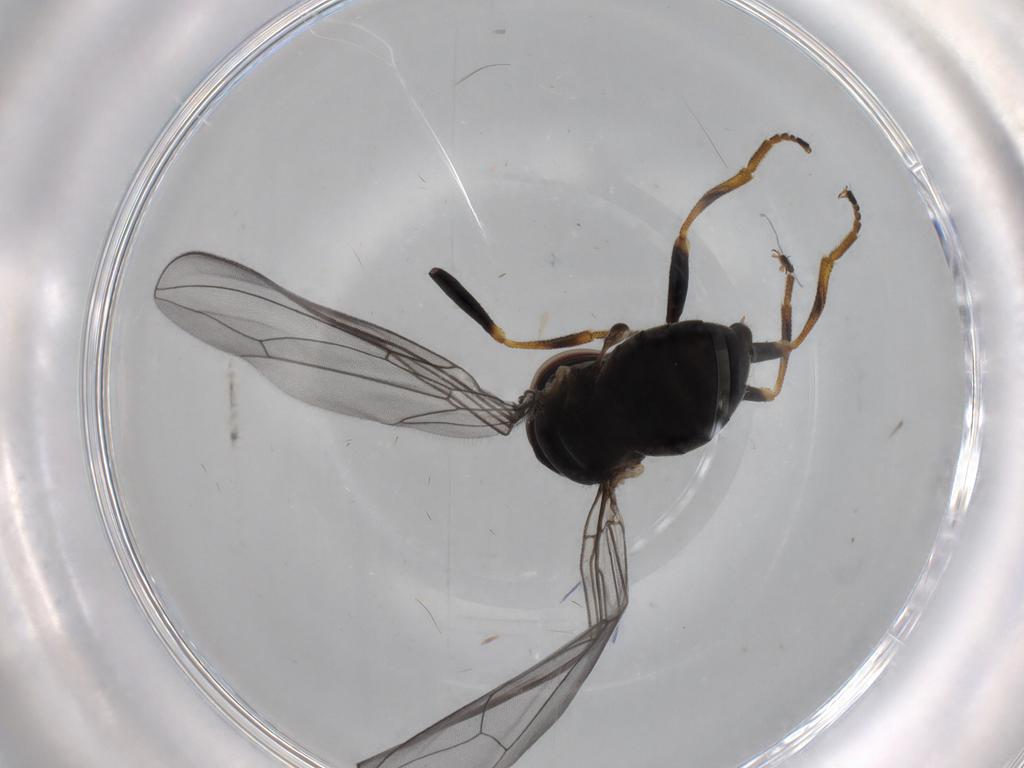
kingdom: Animalia
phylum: Arthropoda
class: Insecta
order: Diptera
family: Pipunculidae
